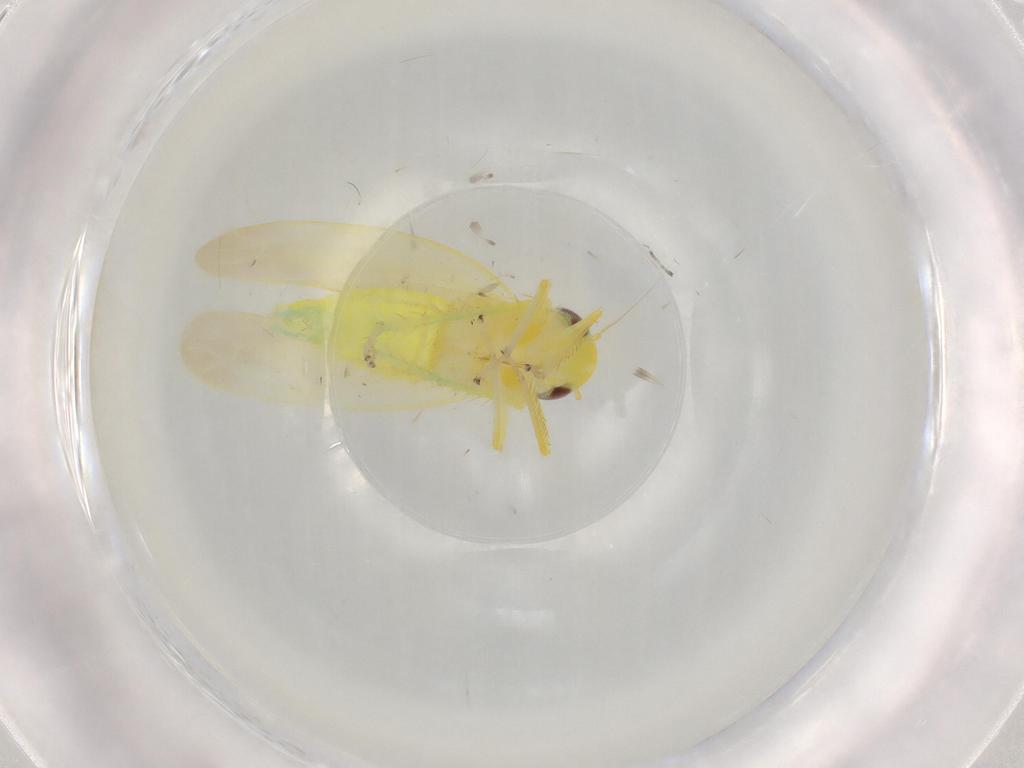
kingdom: Animalia
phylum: Arthropoda
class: Insecta
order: Hemiptera
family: Cicadellidae
